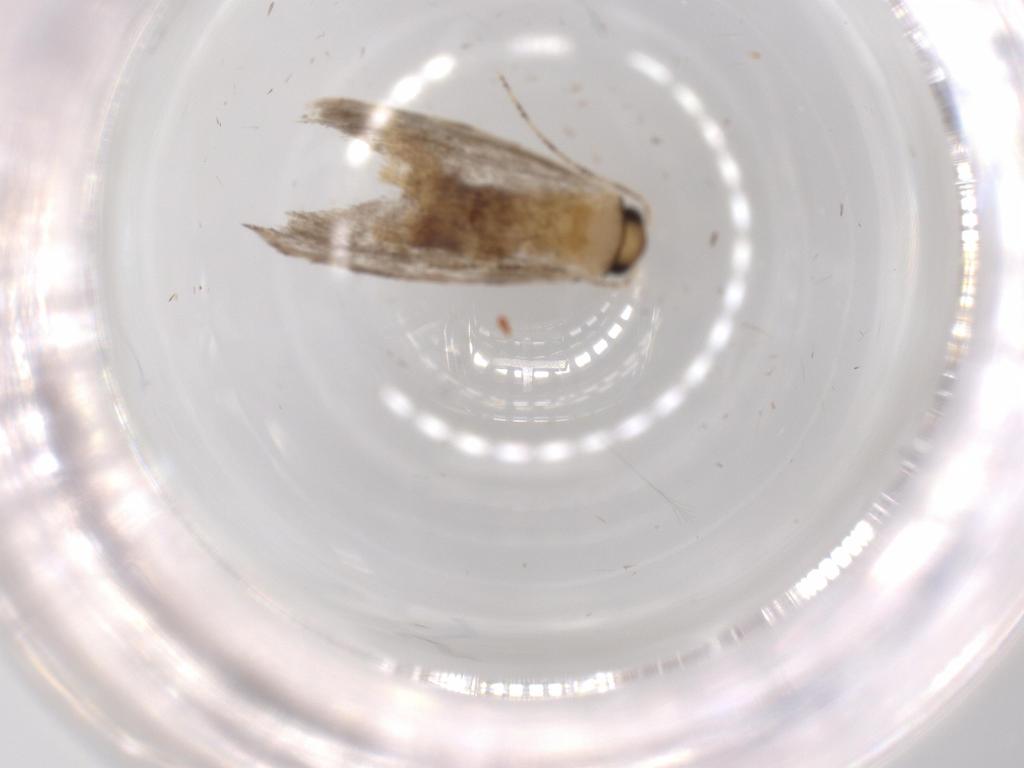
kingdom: Animalia
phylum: Arthropoda
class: Insecta
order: Lepidoptera
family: Tineidae
